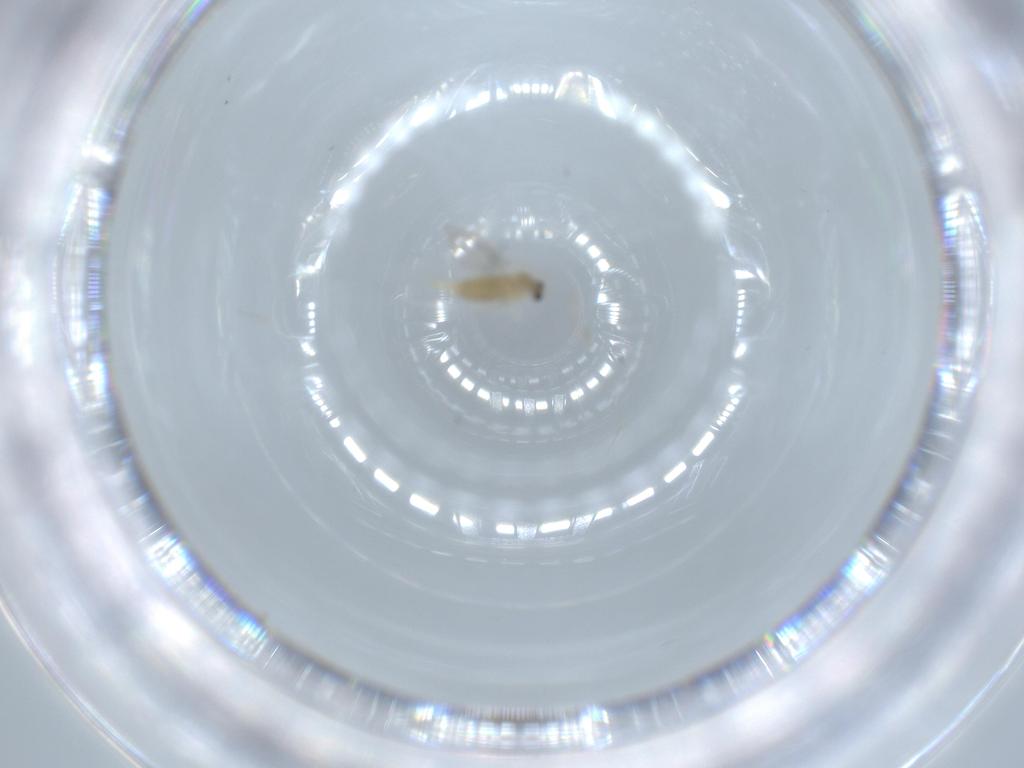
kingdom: Animalia
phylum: Arthropoda
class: Insecta
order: Diptera
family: Cecidomyiidae
